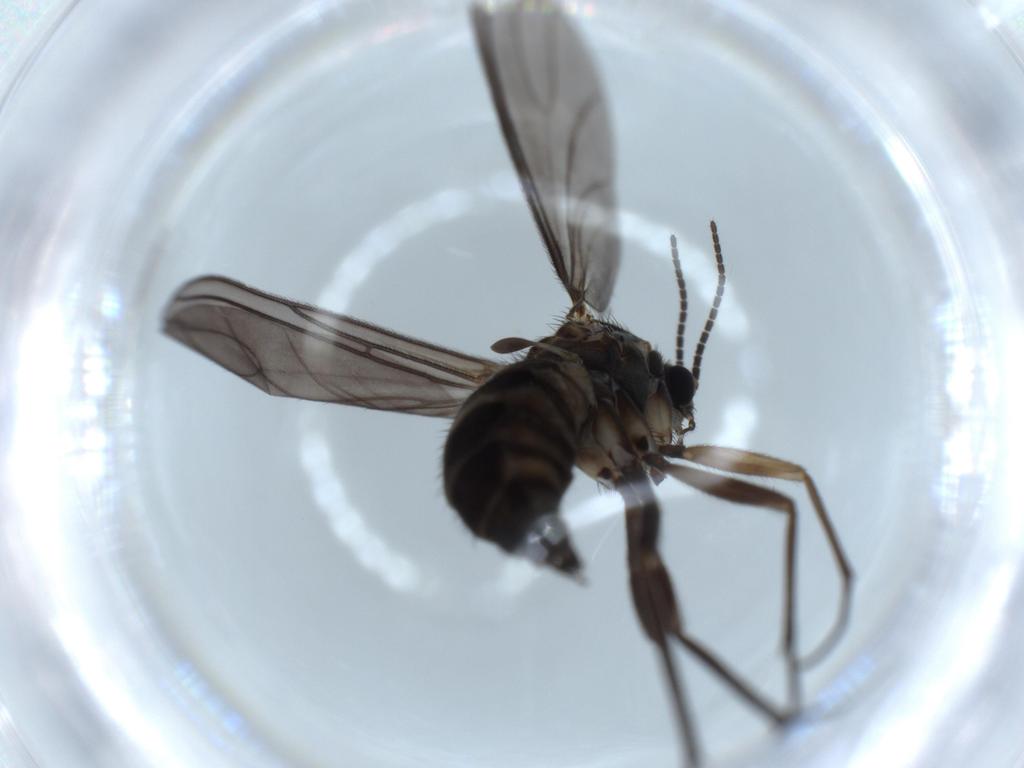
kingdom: Animalia
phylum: Arthropoda
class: Insecta
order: Diptera
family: Sciaridae
